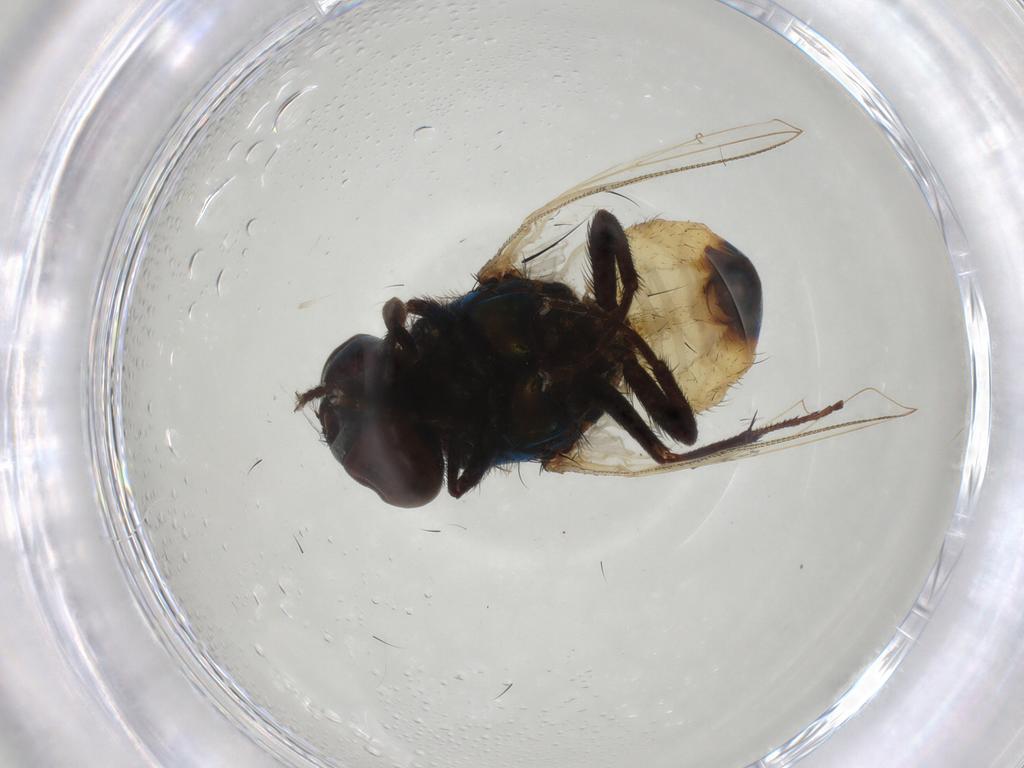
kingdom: Animalia
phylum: Arthropoda
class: Insecta
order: Diptera
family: Muscidae
